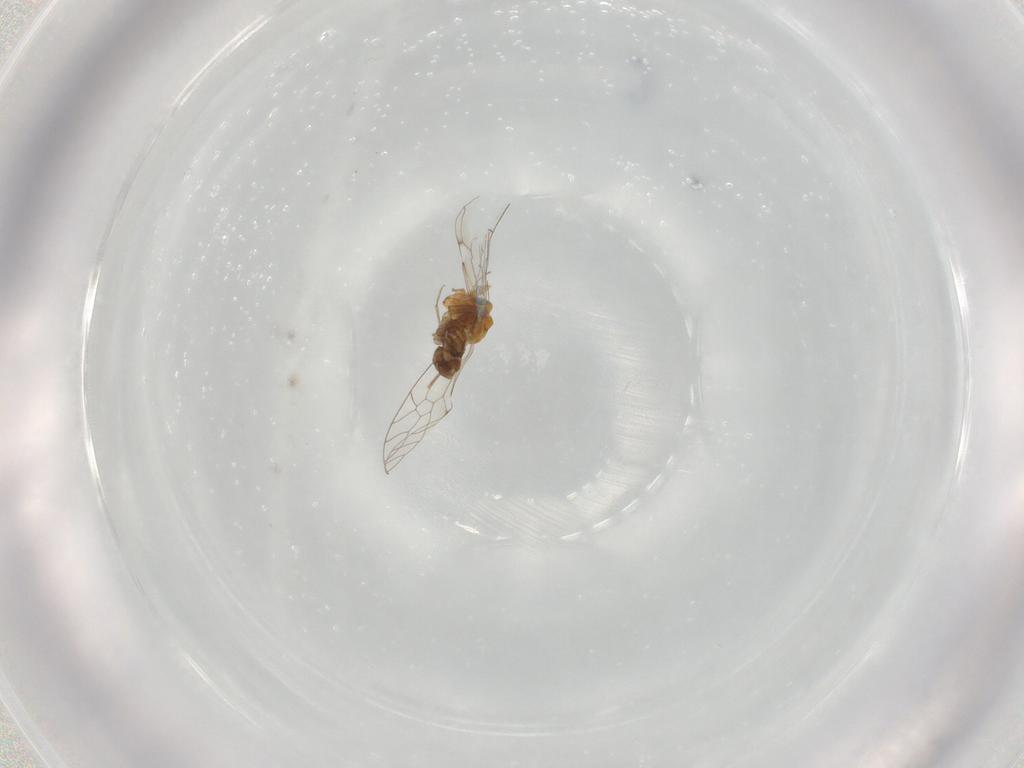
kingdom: Animalia
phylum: Arthropoda
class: Insecta
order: Psocodea
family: Prionoglarididae
